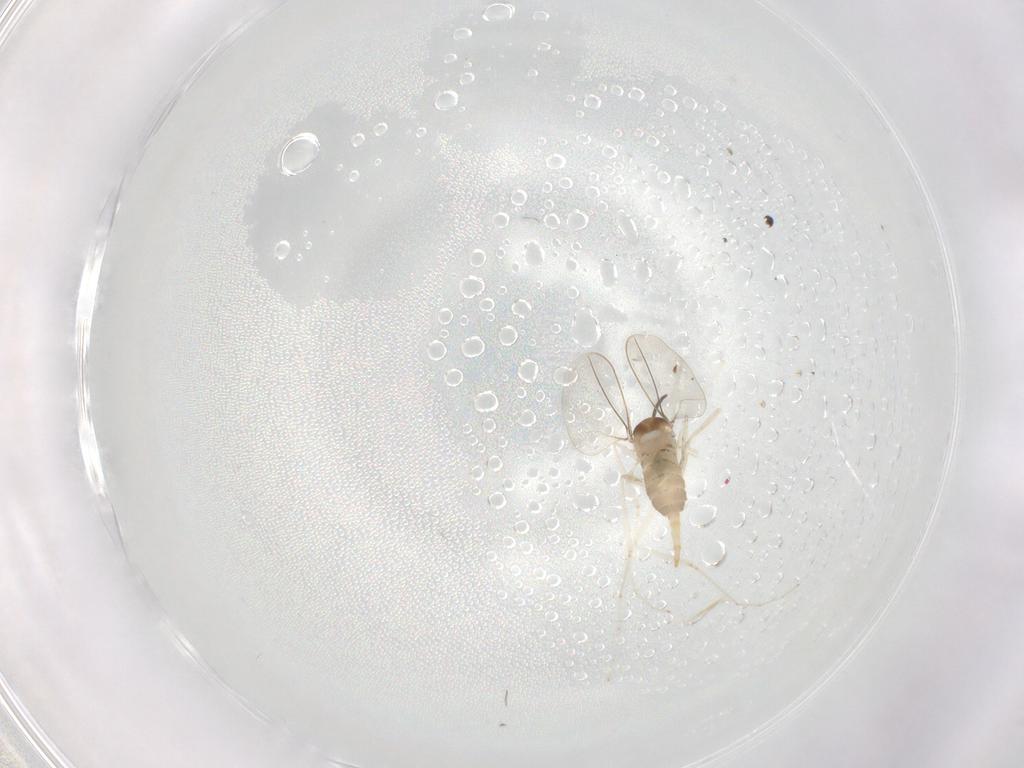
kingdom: Animalia
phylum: Arthropoda
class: Insecta
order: Diptera
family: Cecidomyiidae
